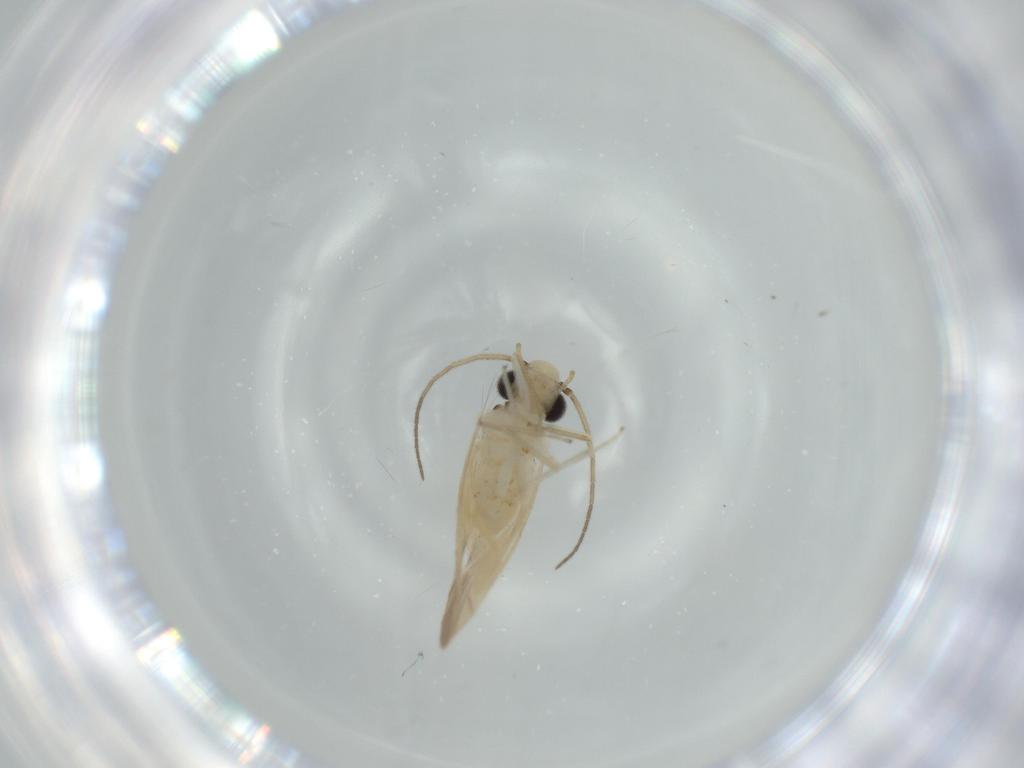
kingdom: Animalia
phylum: Arthropoda
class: Insecta
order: Psocodea
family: Caeciliusidae
